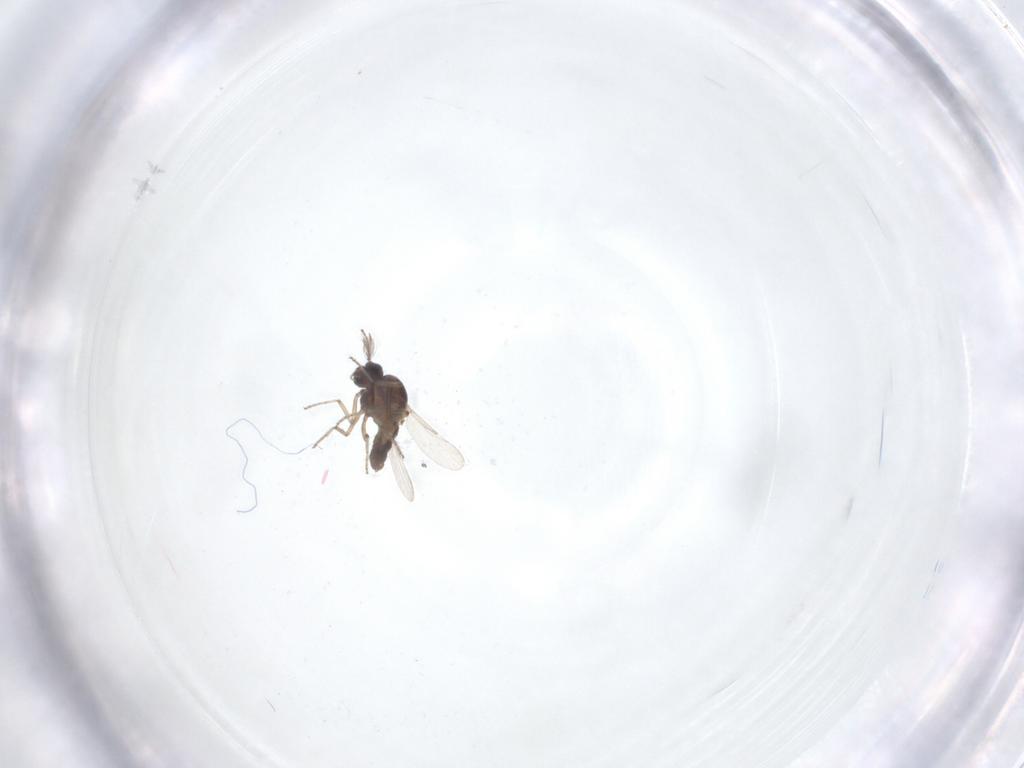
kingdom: Animalia
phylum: Arthropoda
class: Insecta
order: Diptera
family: Ceratopogonidae
